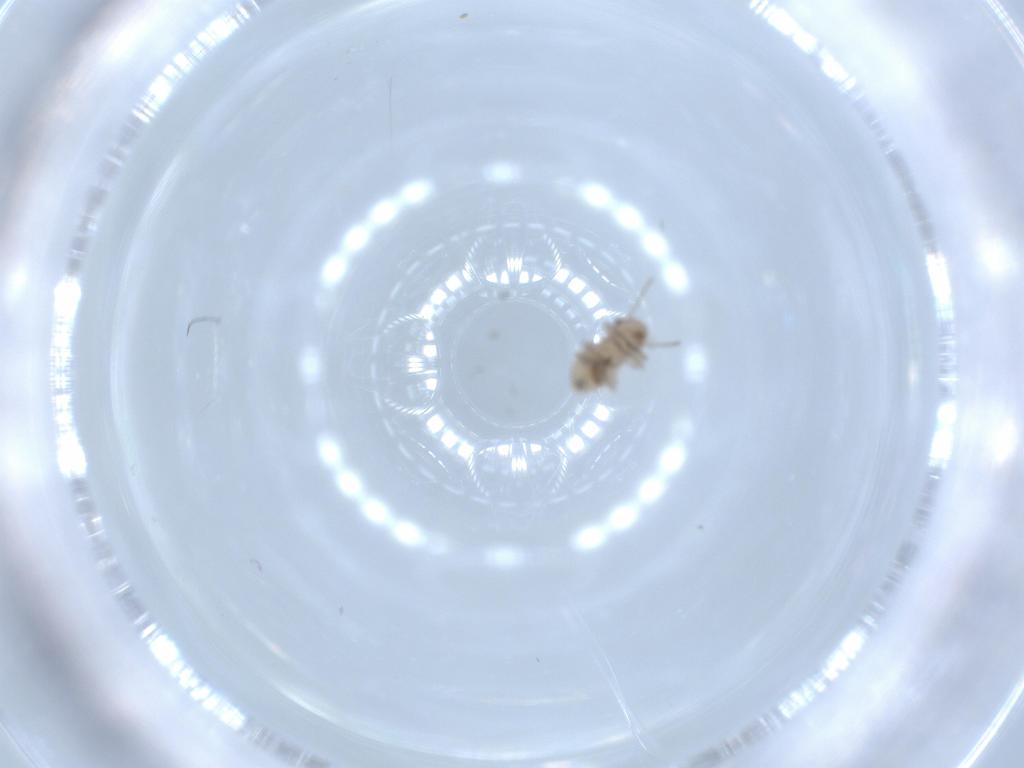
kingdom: Animalia
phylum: Arthropoda
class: Insecta
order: Psocodea
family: Psocidae
